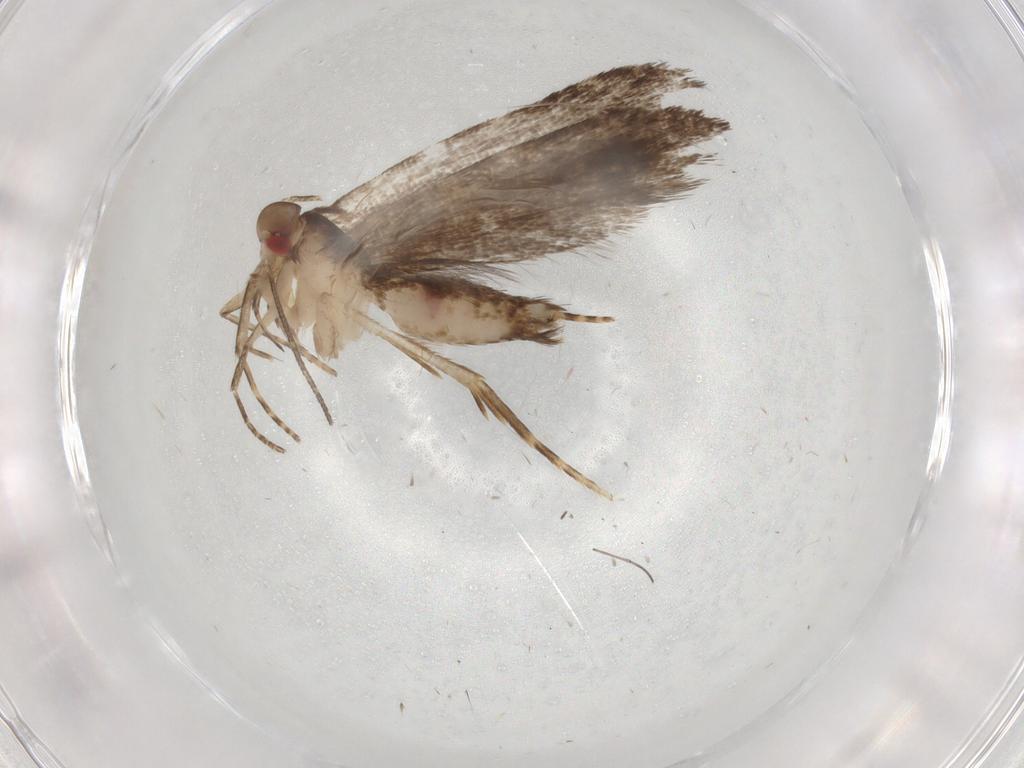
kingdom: Animalia
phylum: Arthropoda
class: Insecta
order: Lepidoptera
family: Gelechiidae
